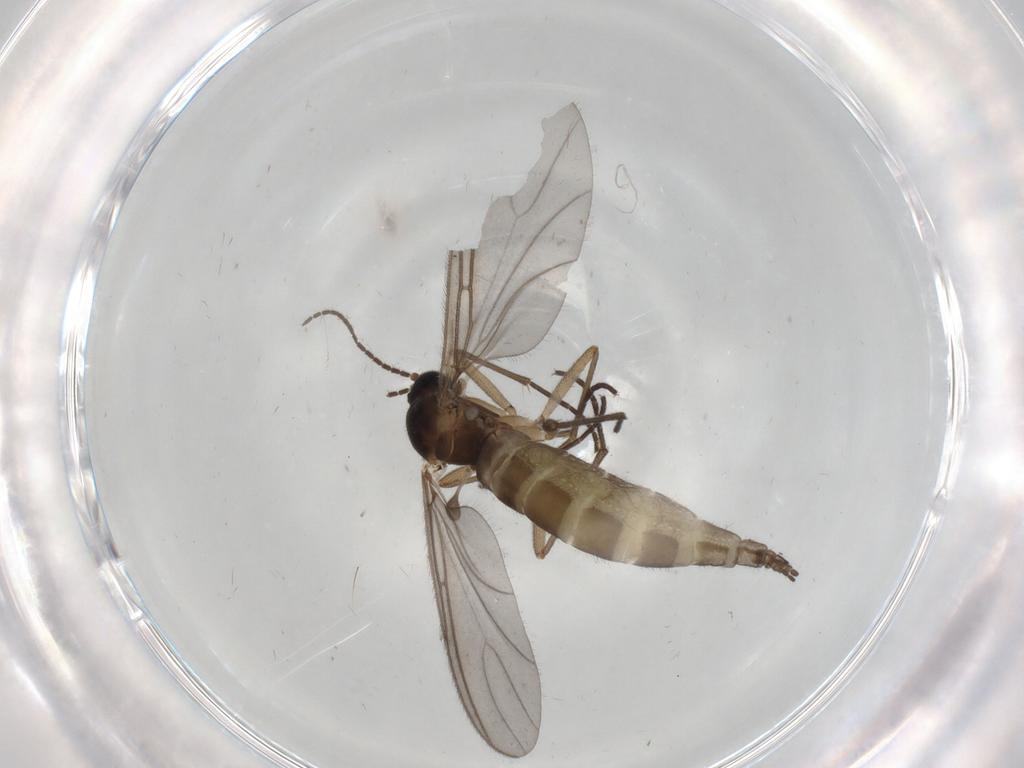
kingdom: Animalia
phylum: Arthropoda
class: Insecta
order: Diptera
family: Sciaridae
